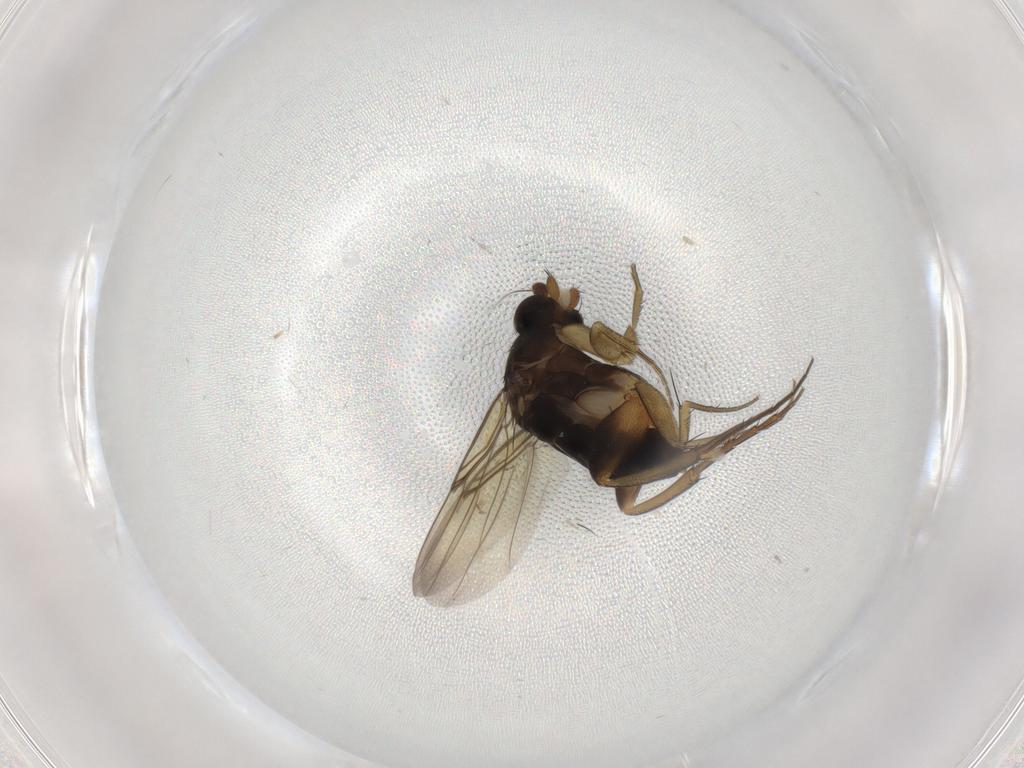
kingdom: Animalia
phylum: Arthropoda
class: Insecta
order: Diptera
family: Phoridae
